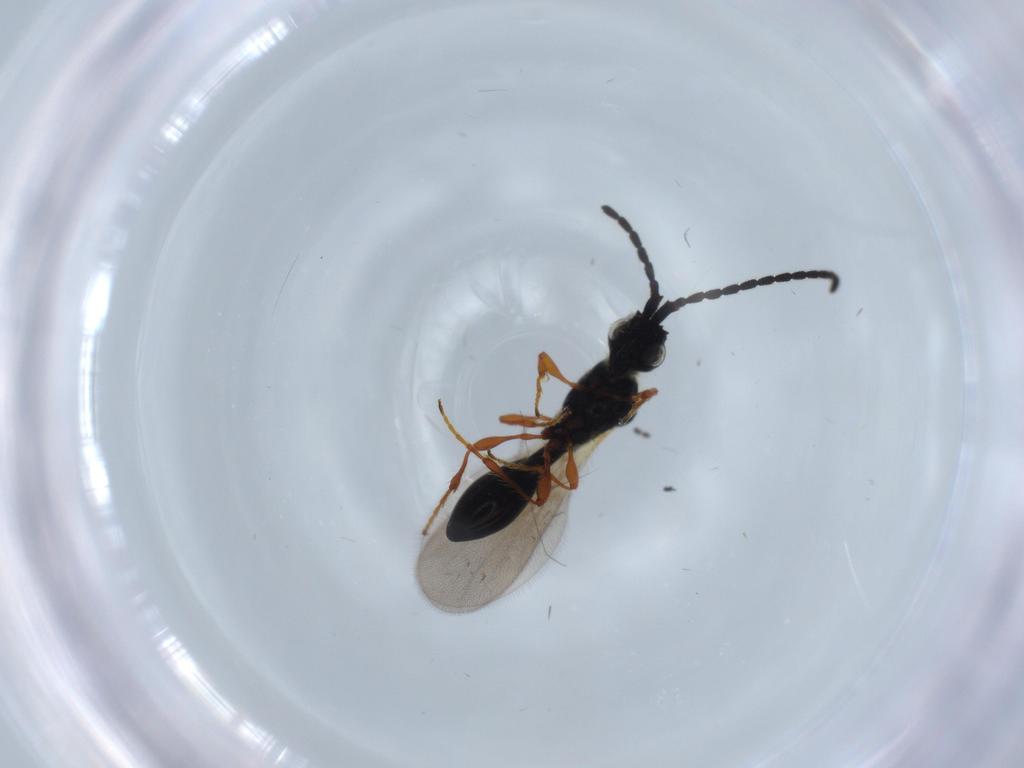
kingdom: Animalia
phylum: Arthropoda
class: Insecta
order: Hymenoptera
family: Diapriidae
